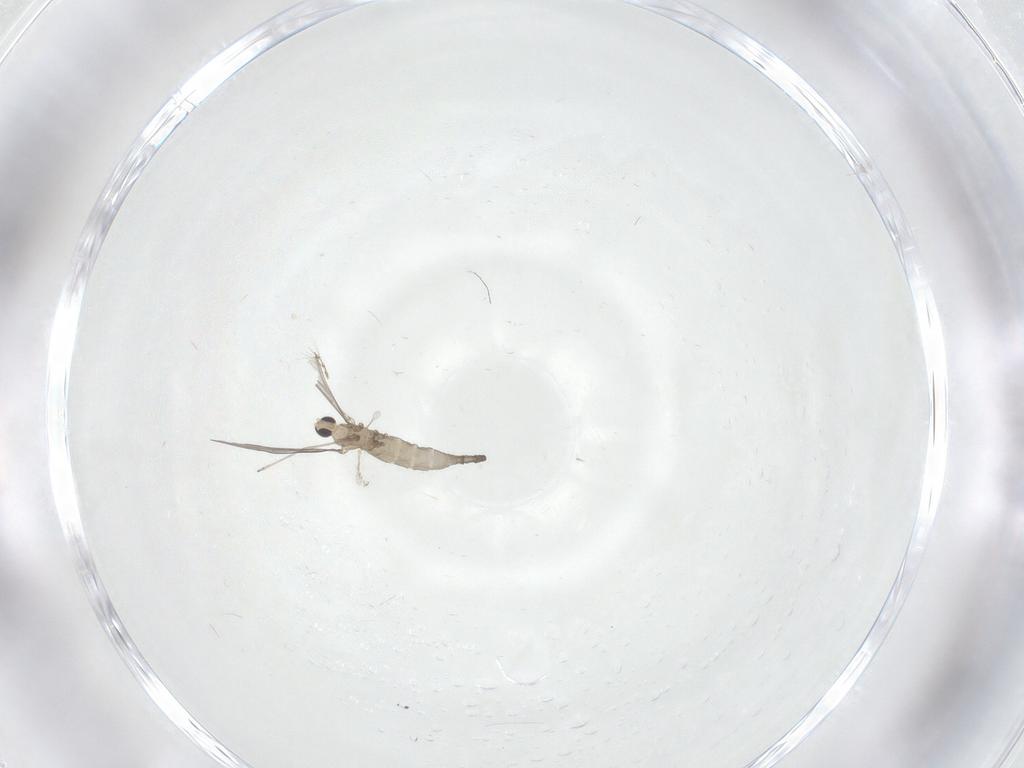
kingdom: Animalia
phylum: Arthropoda
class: Insecta
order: Diptera
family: Cecidomyiidae
